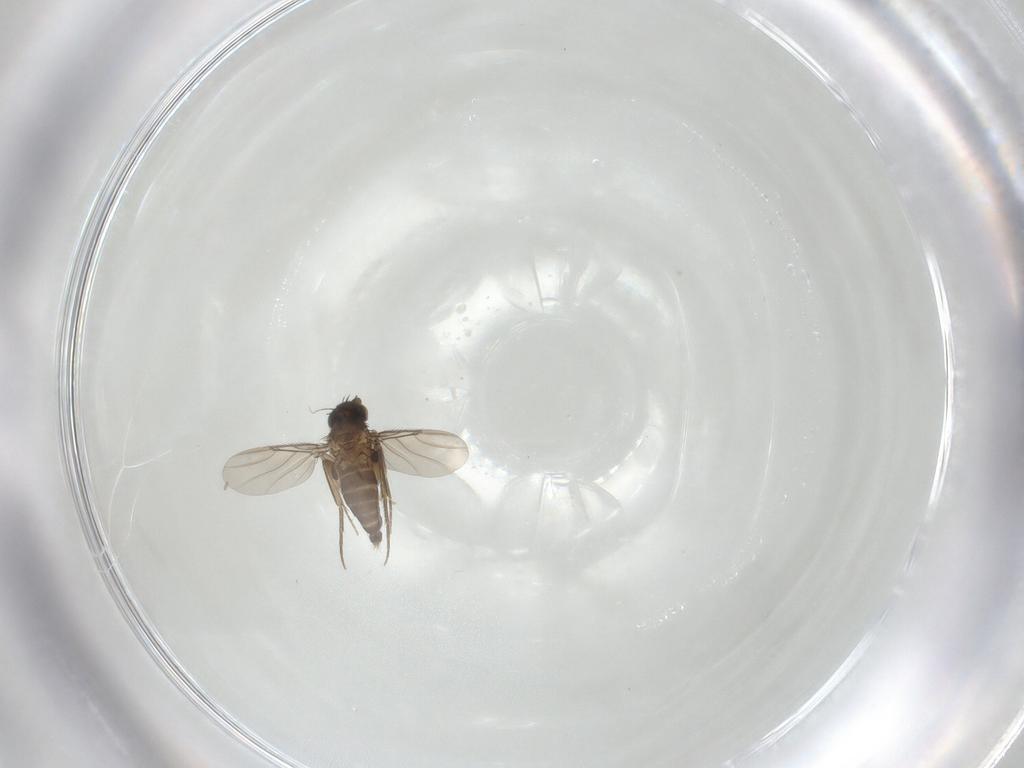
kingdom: Animalia
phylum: Arthropoda
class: Insecta
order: Diptera
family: Phoridae
